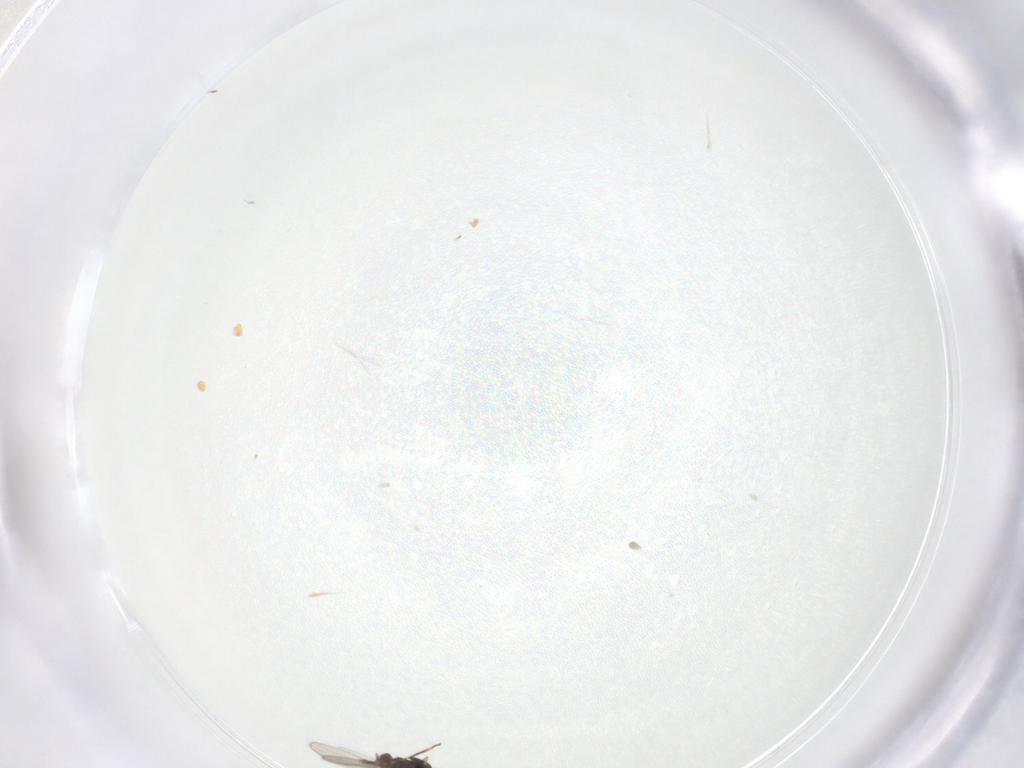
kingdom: Animalia
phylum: Arthropoda
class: Insecta
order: Hymenoptera
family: Trichogrammatidae
